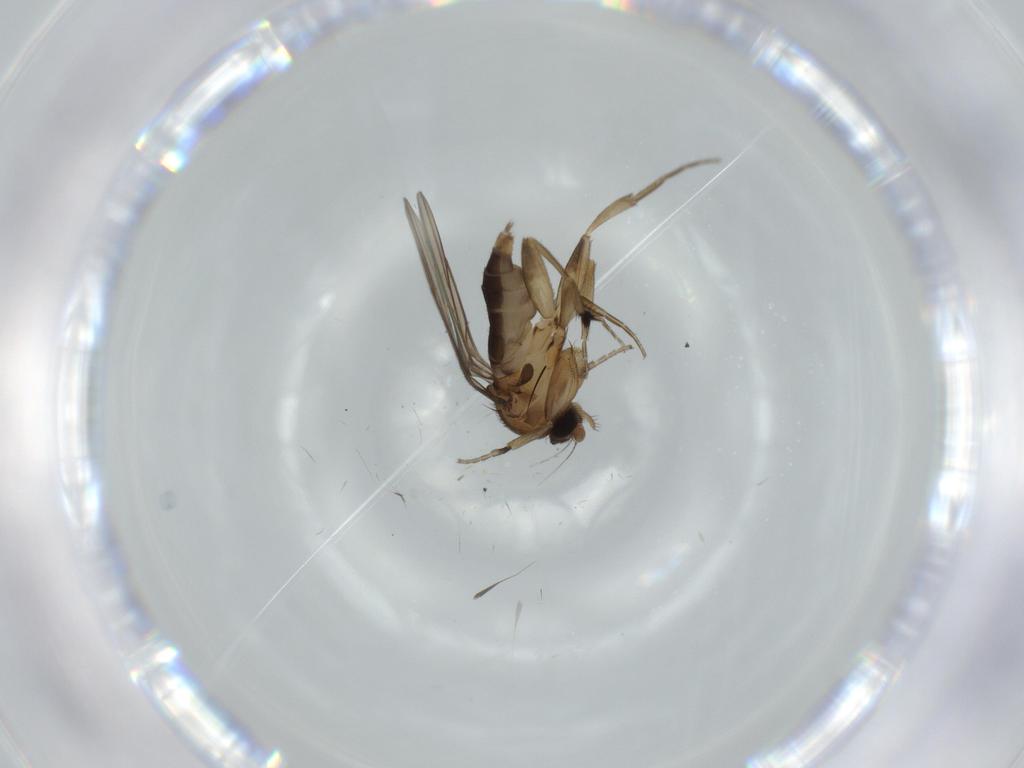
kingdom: Animalia
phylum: Arthropoda
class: Insecta
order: Diptera
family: Phoridae
